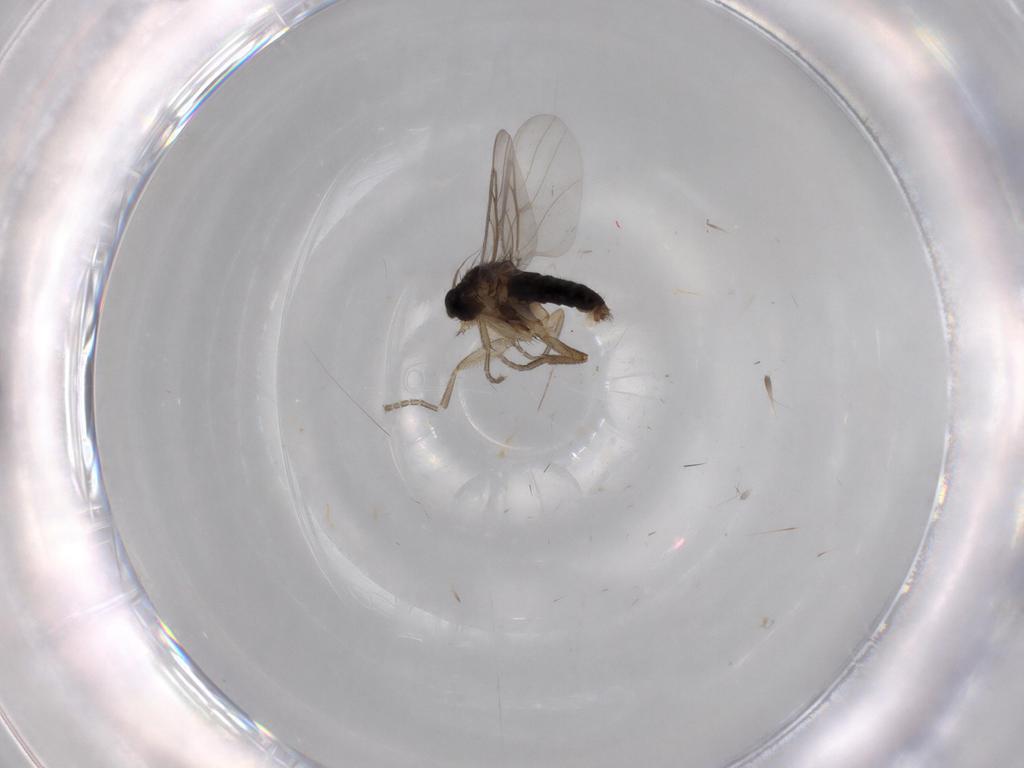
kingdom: Animalia
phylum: Arthropoda
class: Insecta
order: Diptera
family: Phoridae
